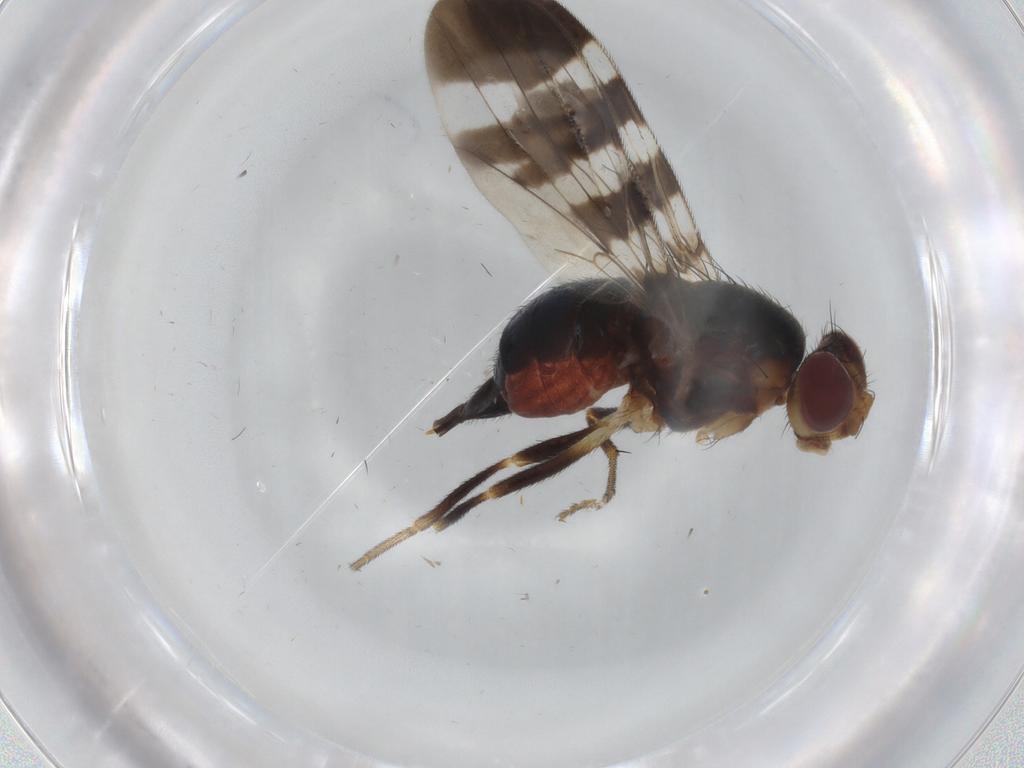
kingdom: Animalia
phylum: Arthropoda
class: Insecta
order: Diptera
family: Tephritidae
